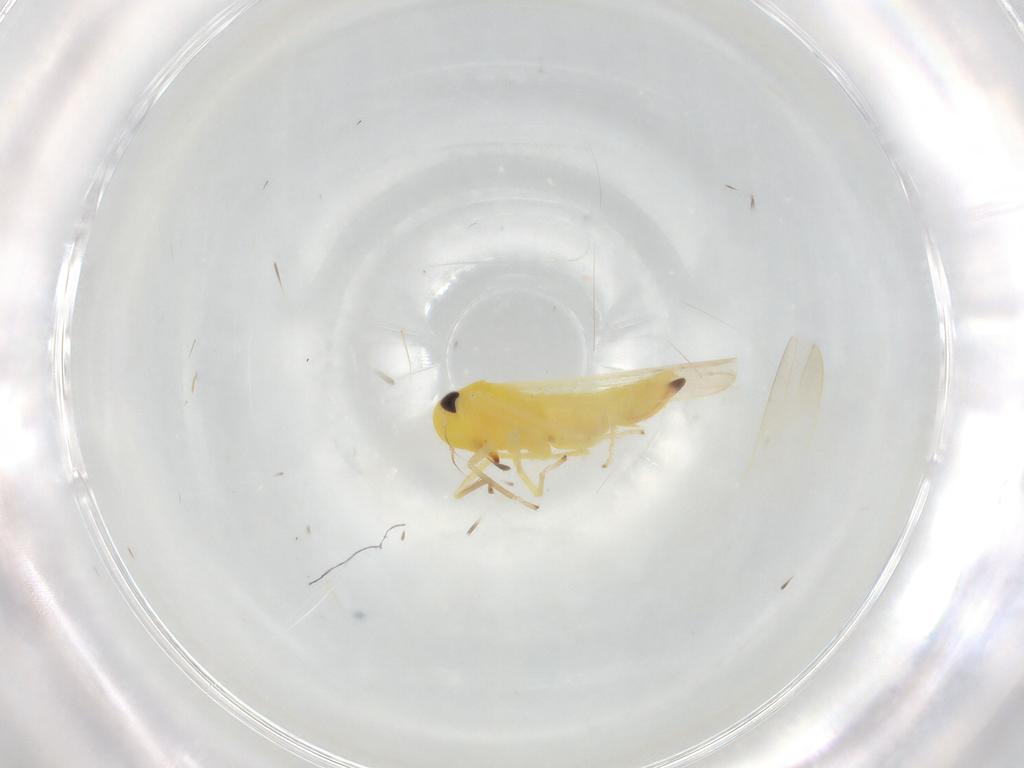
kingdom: Animalia
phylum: Arthropoda
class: Insecta
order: Hemiptera
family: Cicadellidae
